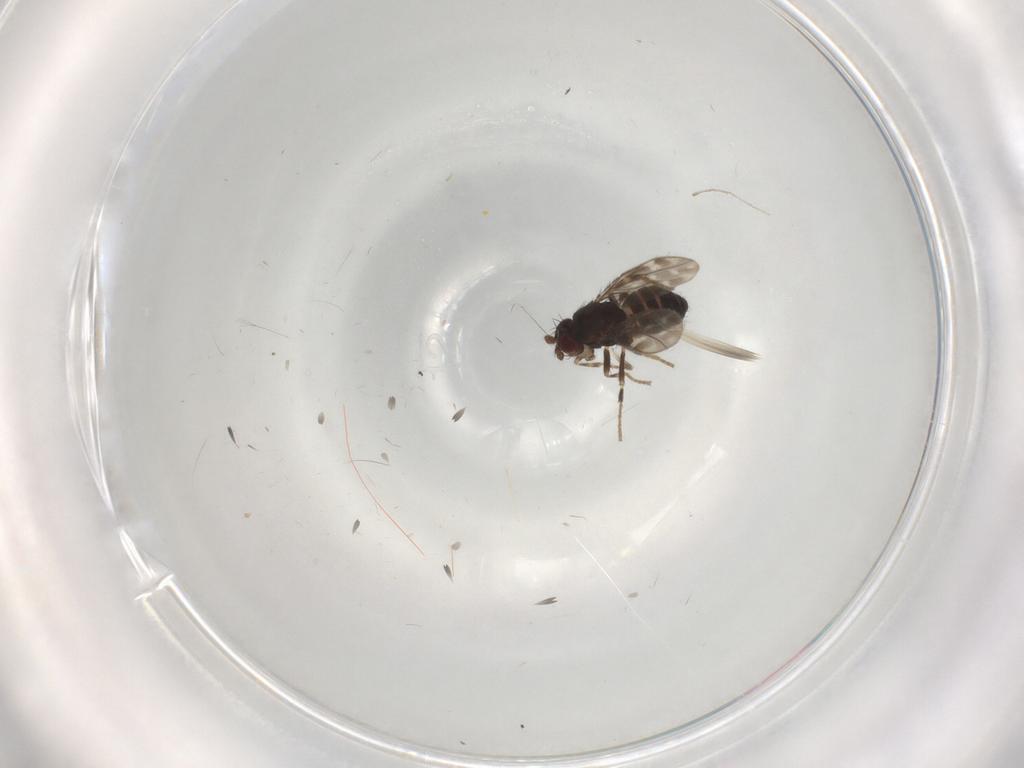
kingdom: Animalia
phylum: Arthropoda
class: Insecta
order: Diptera
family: Sphaeroceridae
